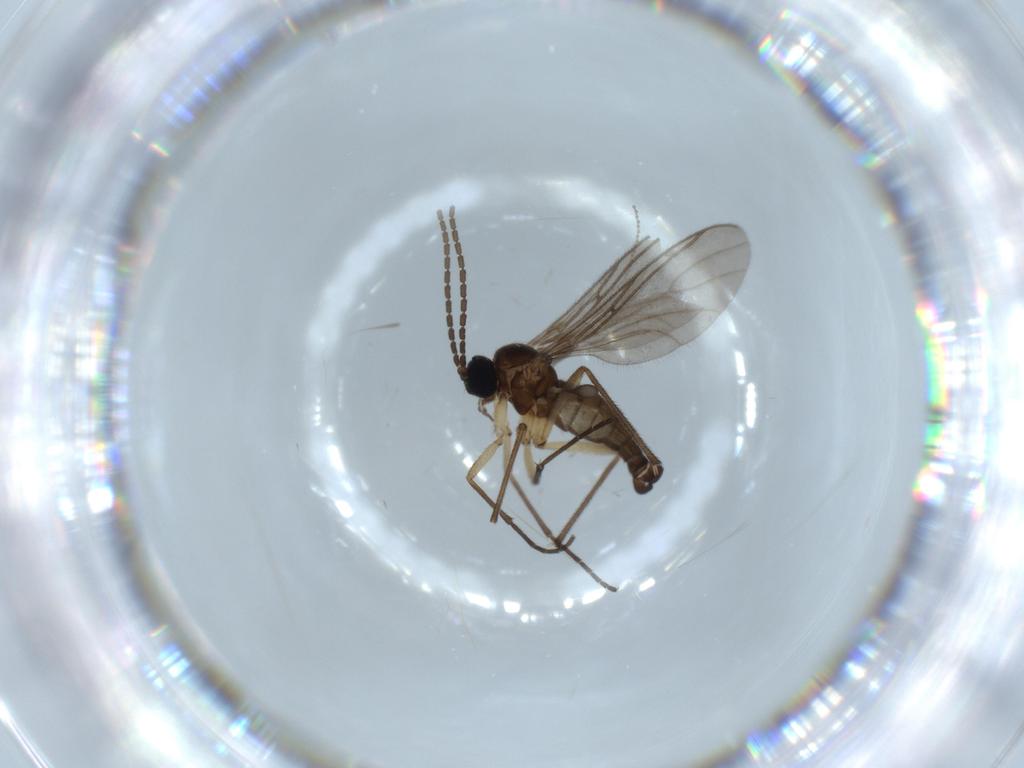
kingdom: Animalia
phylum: Arthropoda
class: Insecta
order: Diptera
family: Sciaridae
